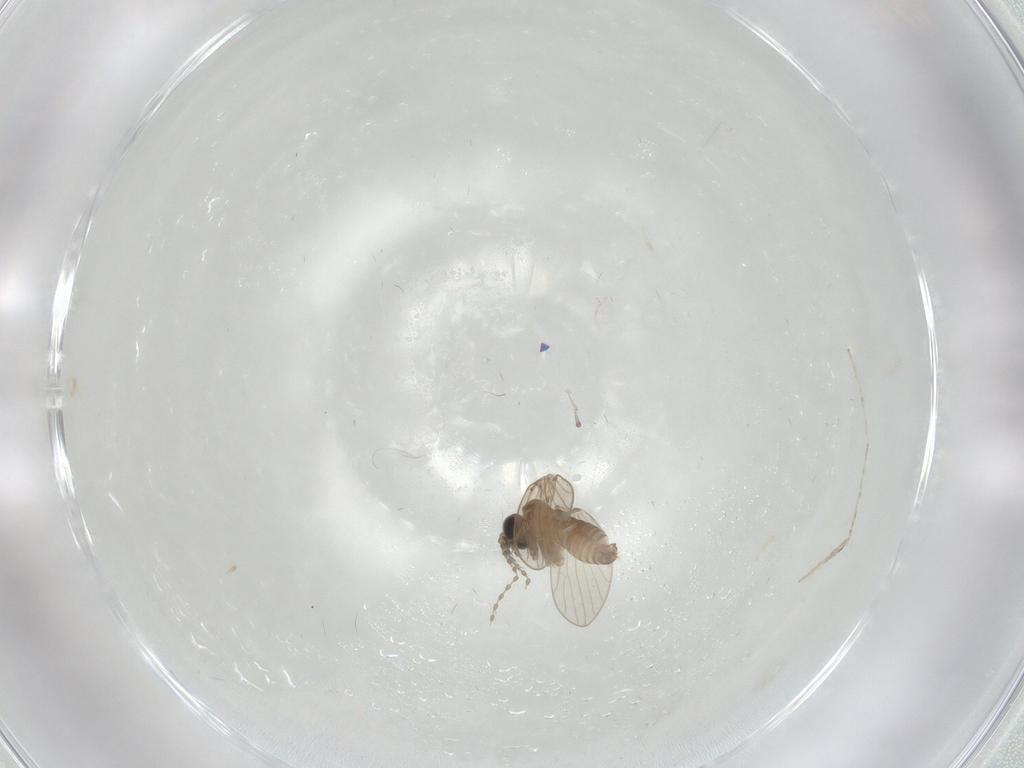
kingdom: Animalia
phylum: Arthropoda
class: Insecta
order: Diptera
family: Psychodidae
